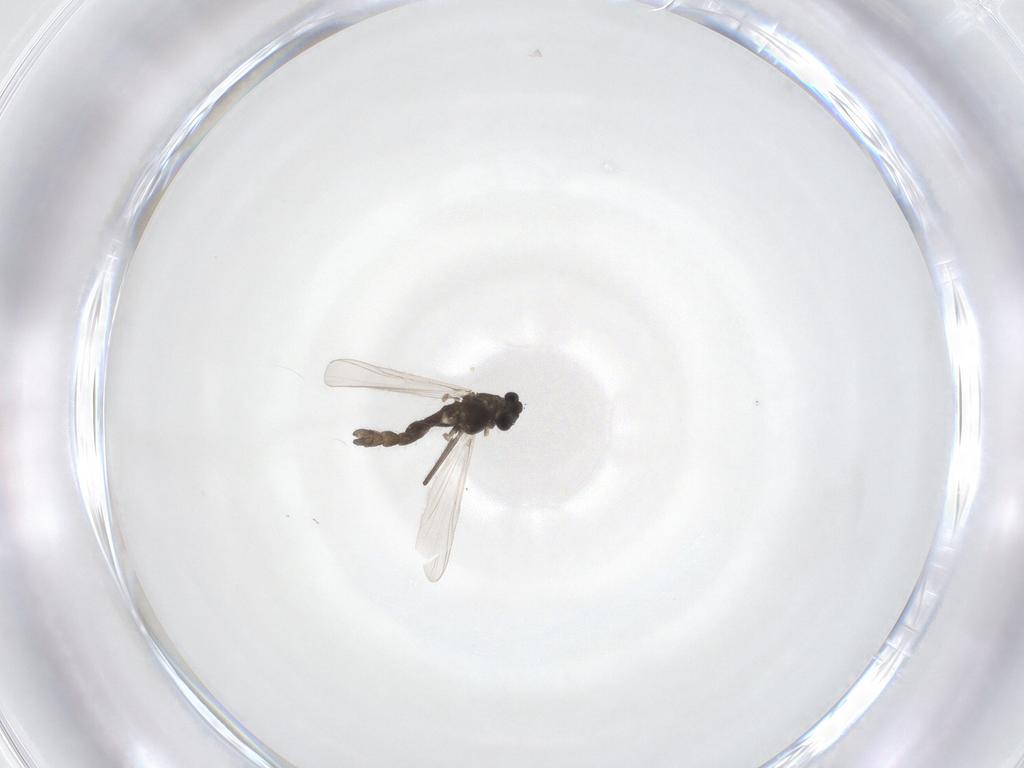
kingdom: Animalia
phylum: Arthropoda
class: Insecta
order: Diptera
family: Chironomidae
